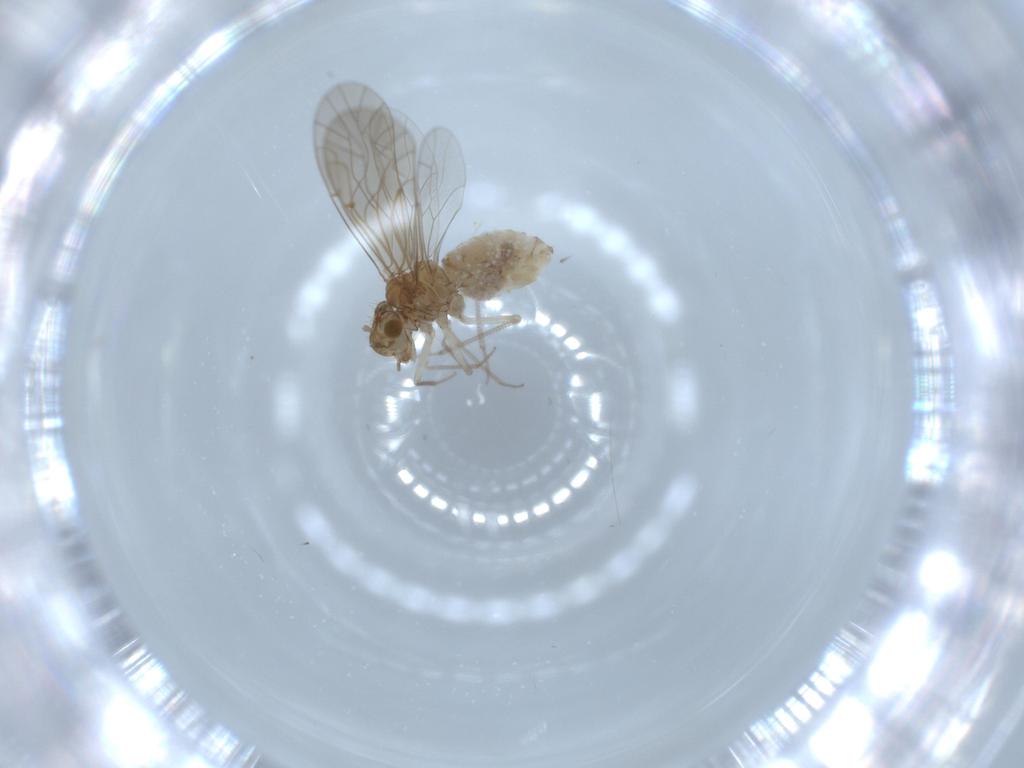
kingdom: Animalia
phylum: Arthropoda
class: Insecta
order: Psocodea
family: Lachesillidae
